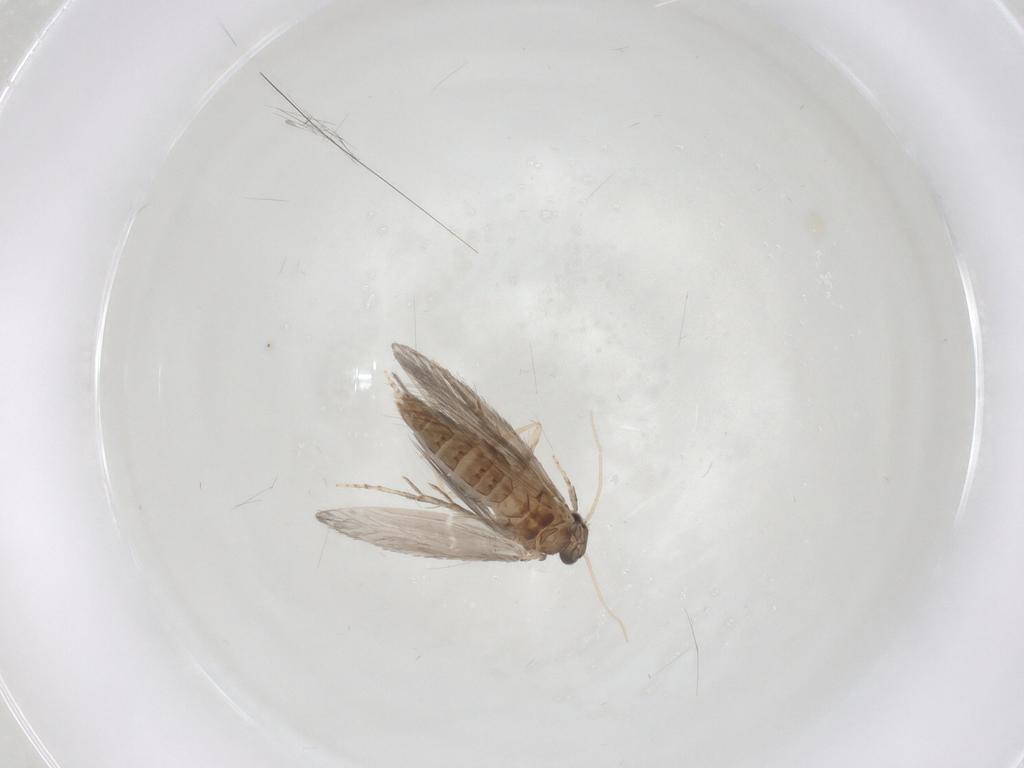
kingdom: Animalia
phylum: Arthropoda
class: Insecta
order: Trichoptera
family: Hydroptilidae
